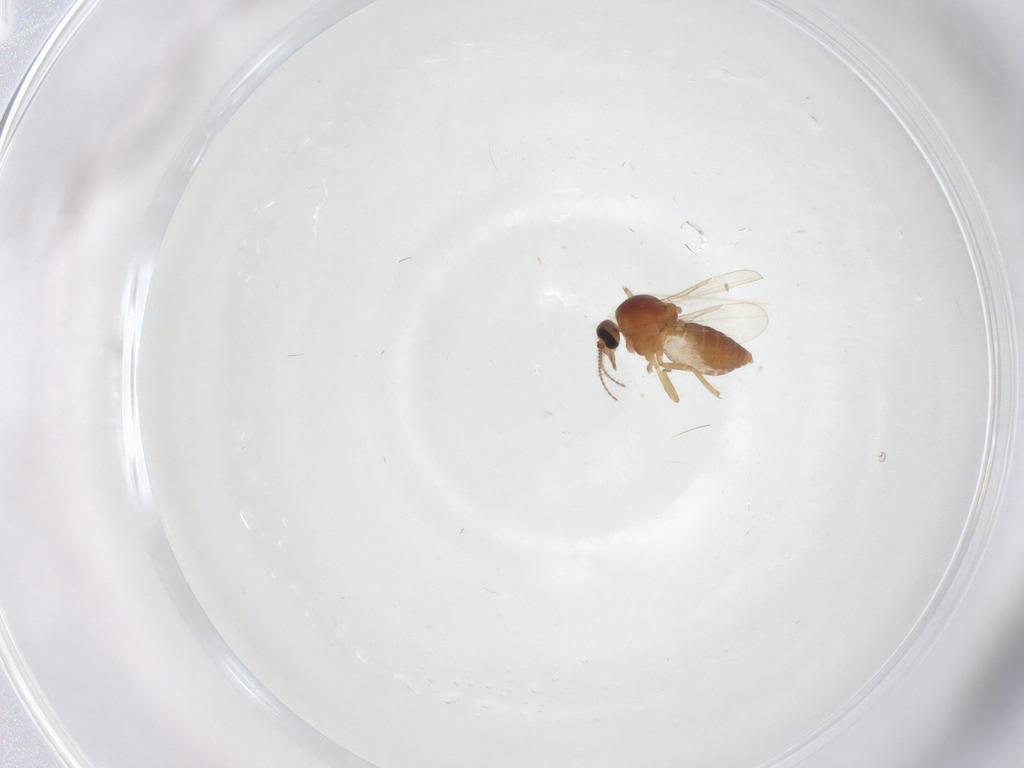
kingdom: Animalia
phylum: Arthropoda
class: Insecta
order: Diptera
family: Ceratopogonidae
